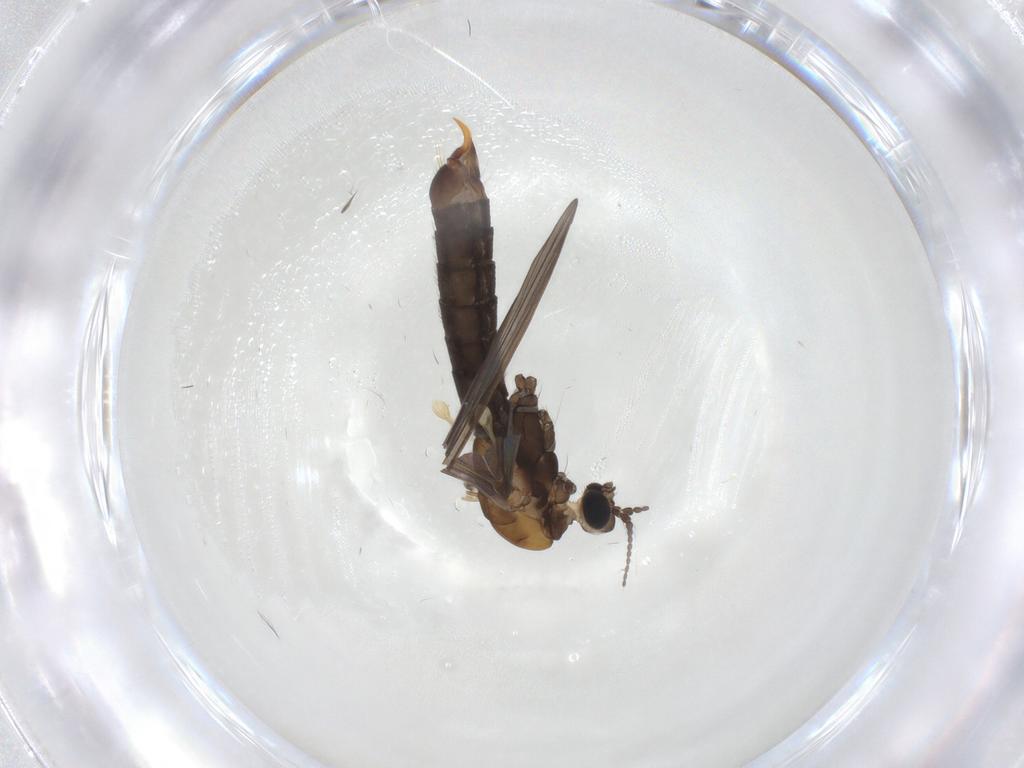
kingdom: Animalia
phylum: Arthropoda
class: Insecta
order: Diptera
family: Limoniidae
